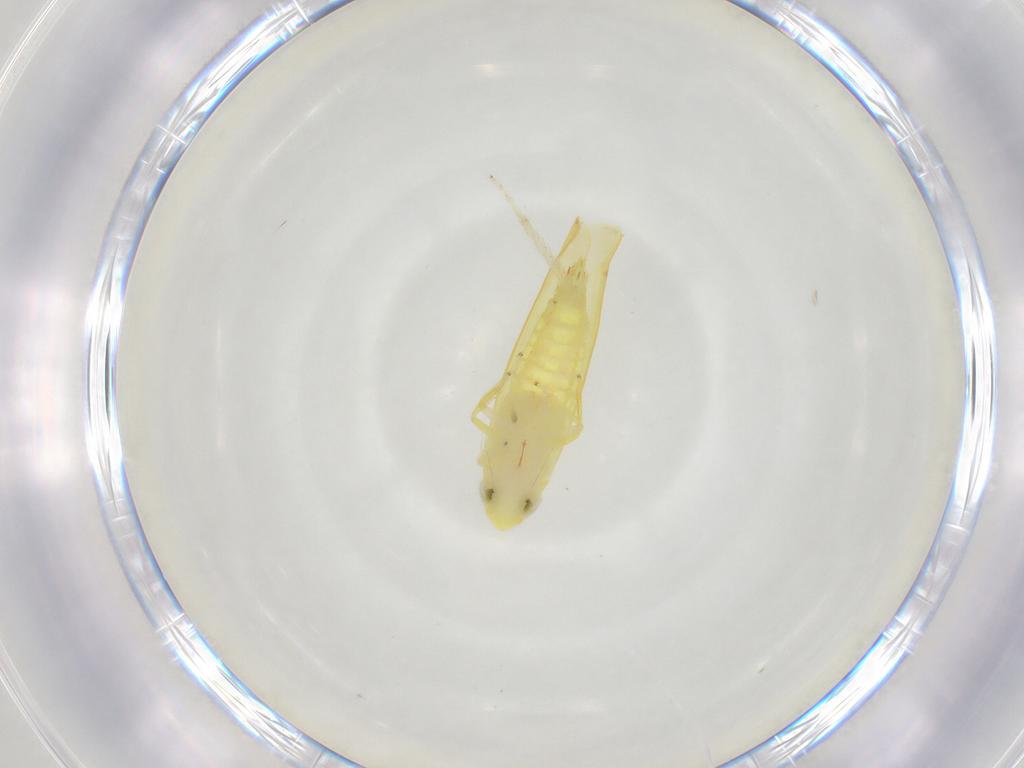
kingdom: Animalia
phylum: Arthropoda
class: Insecta
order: Hemiptera
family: Cicadellidae
